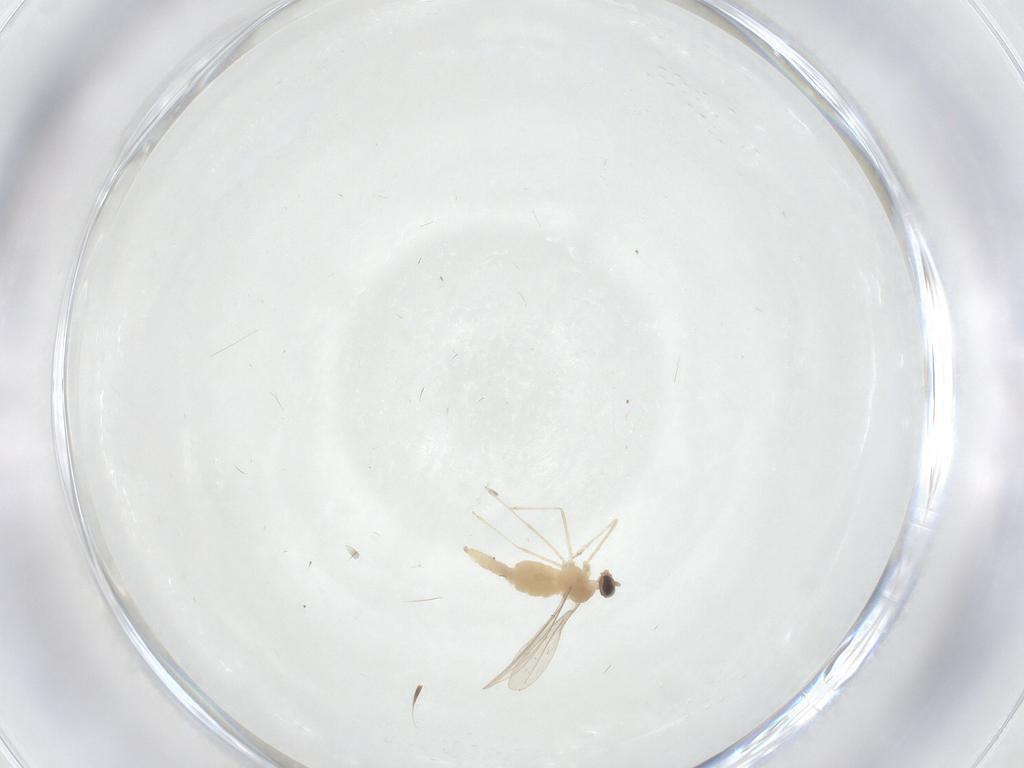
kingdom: Animalia
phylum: Arthropoda
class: Insecta
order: Diptera
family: Cecidomyiidae
